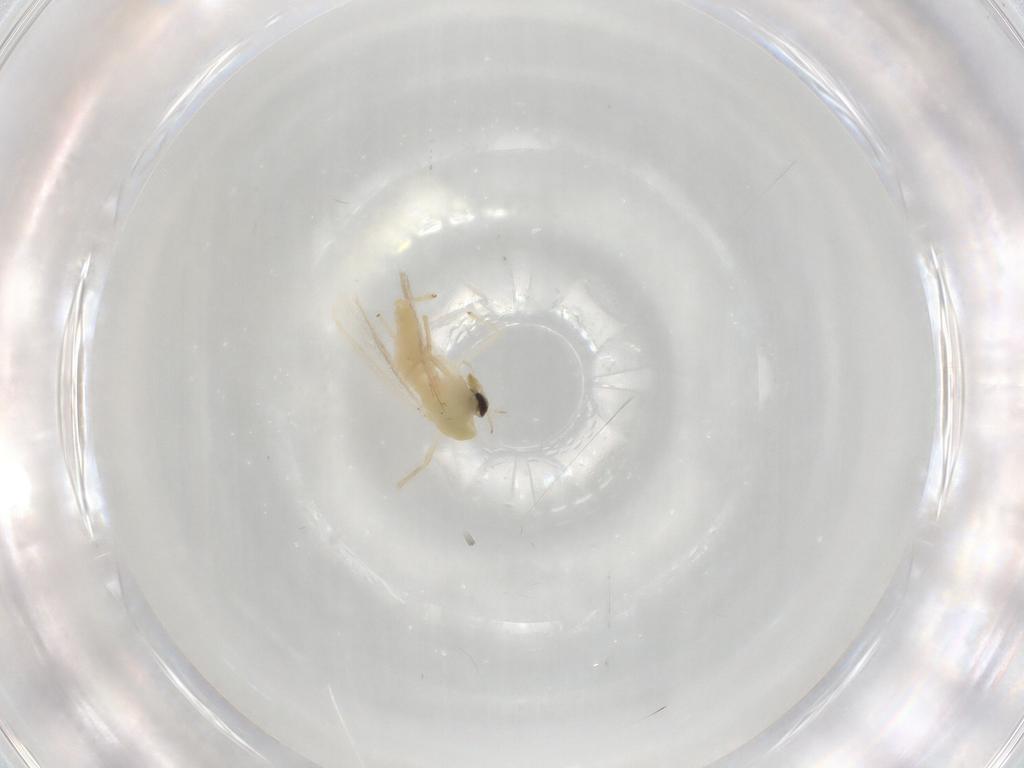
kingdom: Animalia
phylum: Arthropoda
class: Insecta
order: Diptera
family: Chironomidae
